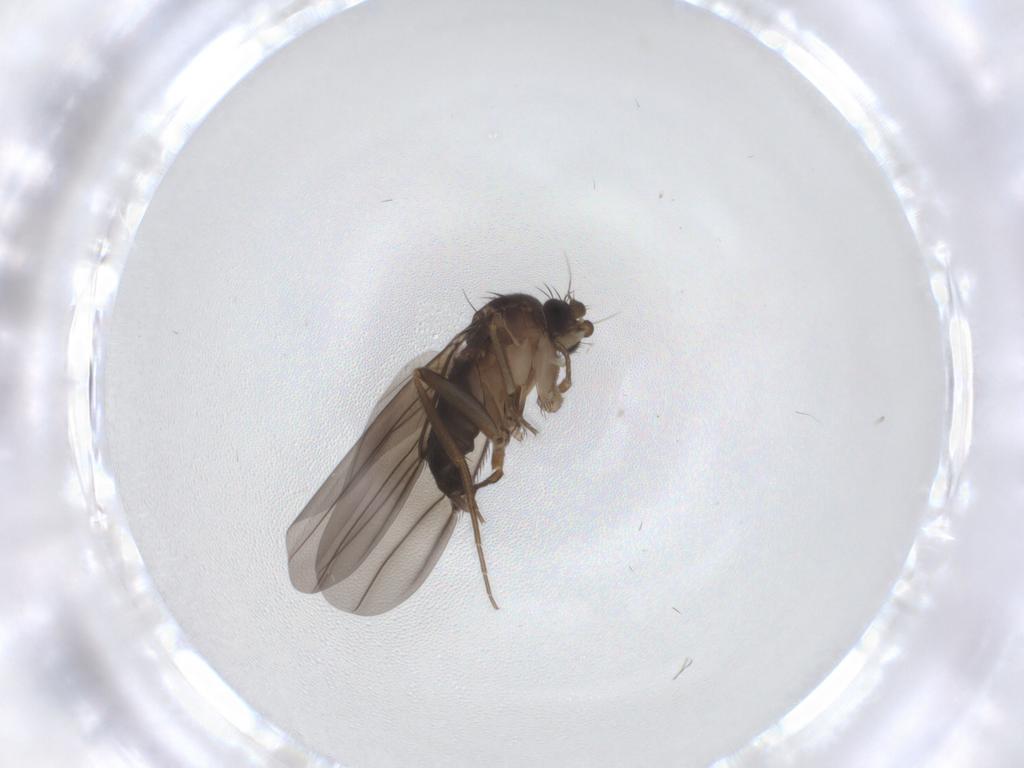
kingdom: Animalia
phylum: Arthropoda
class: Insecta
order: Diptera
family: Phoridae
